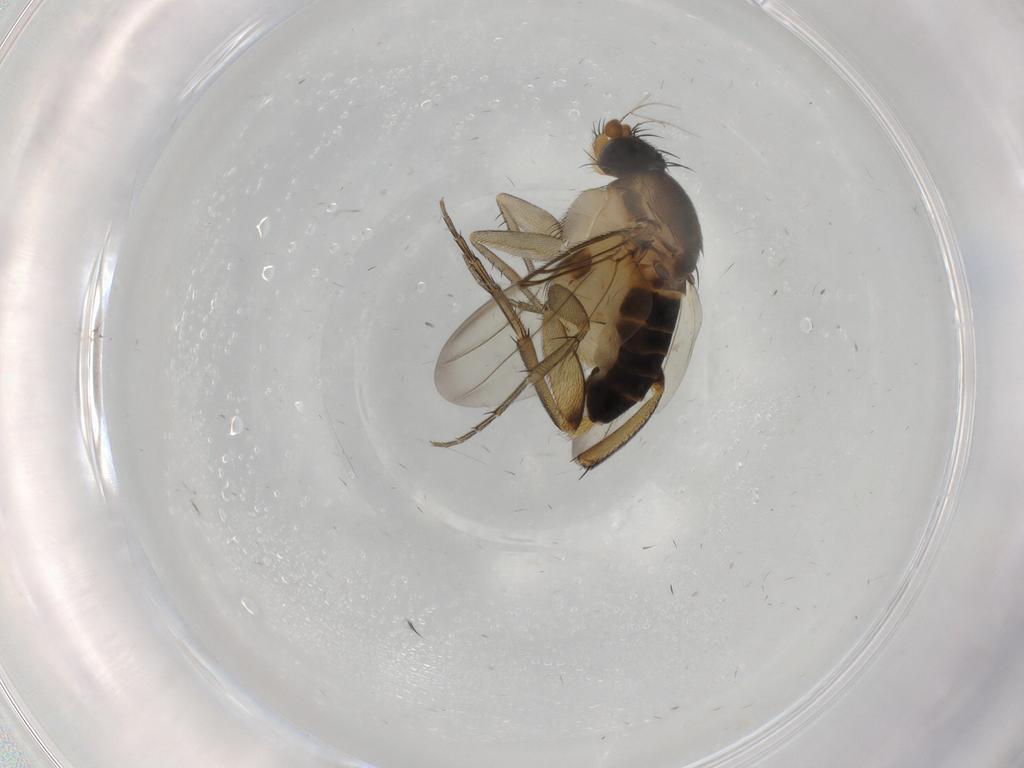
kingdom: Animalia
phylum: Arthropoda
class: Insecta
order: Diptera
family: Phoridae
